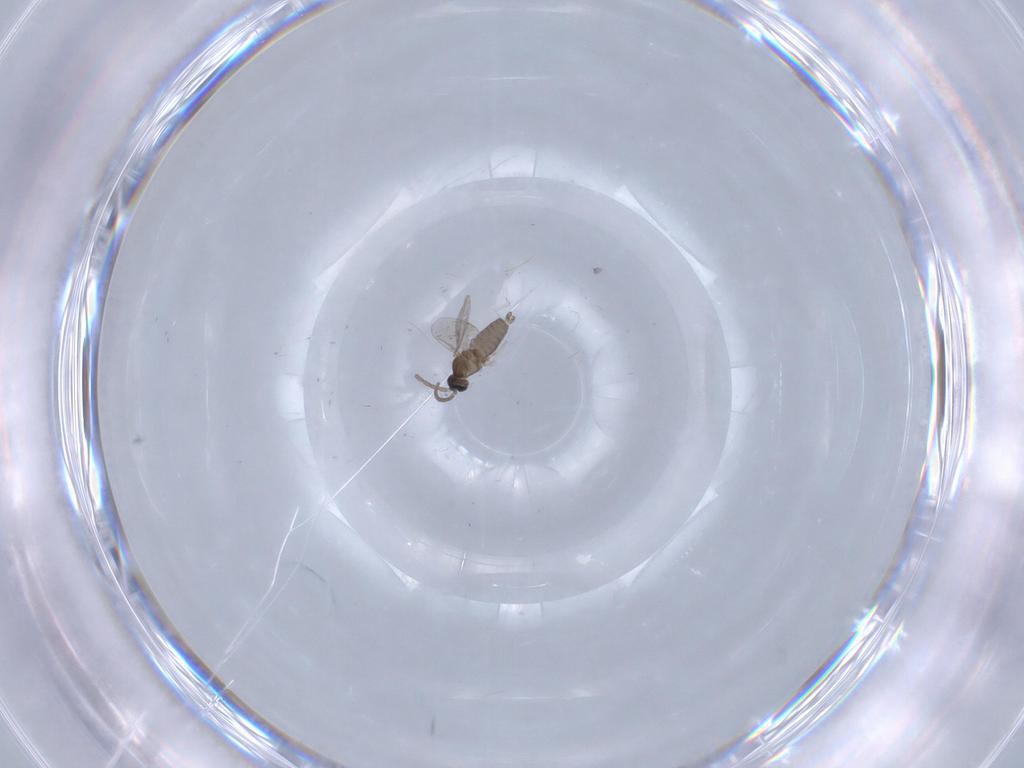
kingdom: Animalia
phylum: Arthropoda
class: Insecta
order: Diptera
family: Cecidomyiidae
